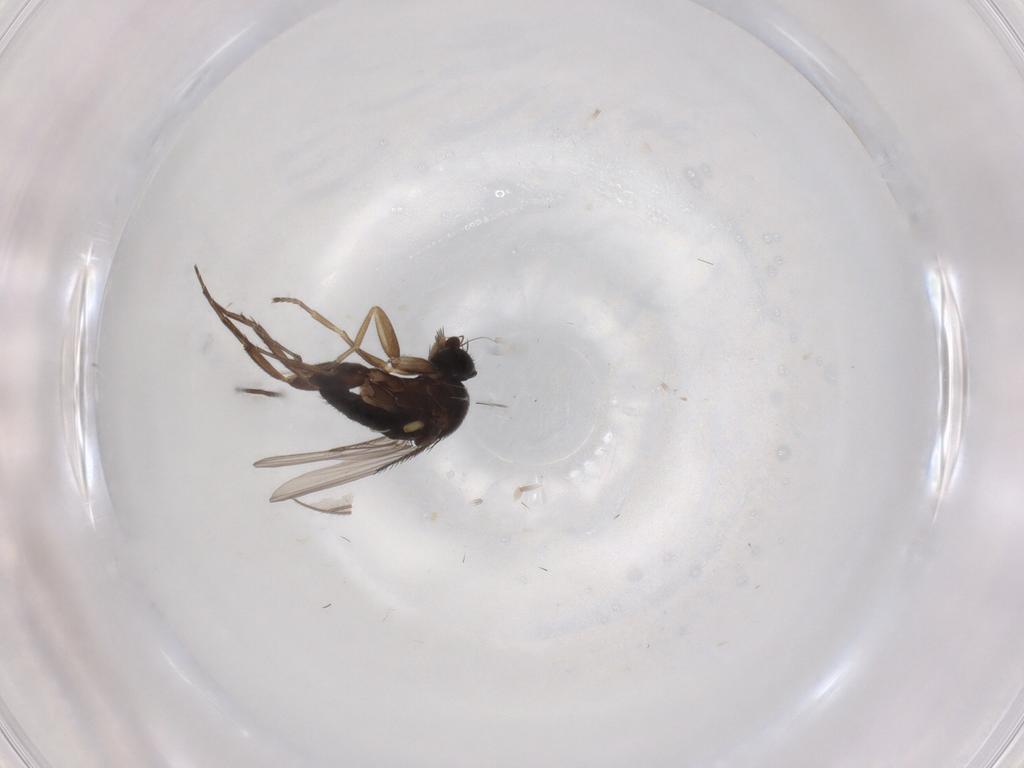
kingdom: Animalia
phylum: Arthropoda
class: Insecta
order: Diptera
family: Phoridae
